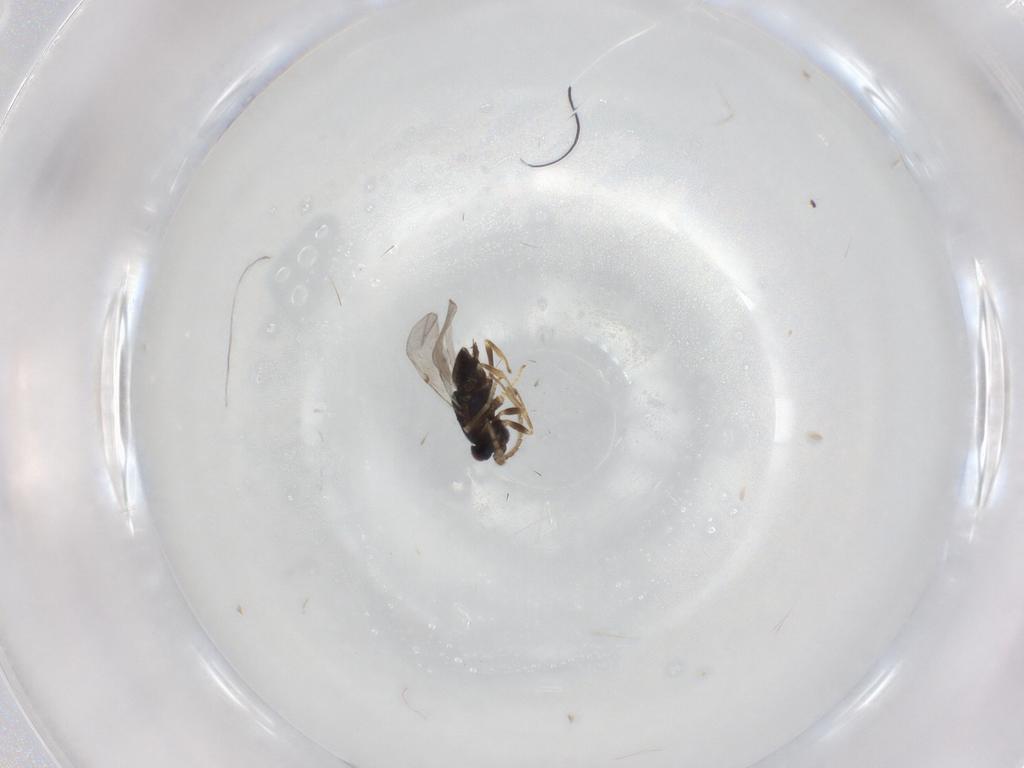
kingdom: Animalia
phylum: Arthropoda
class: Insecta
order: Hymenoptera
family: Encyrtidae
